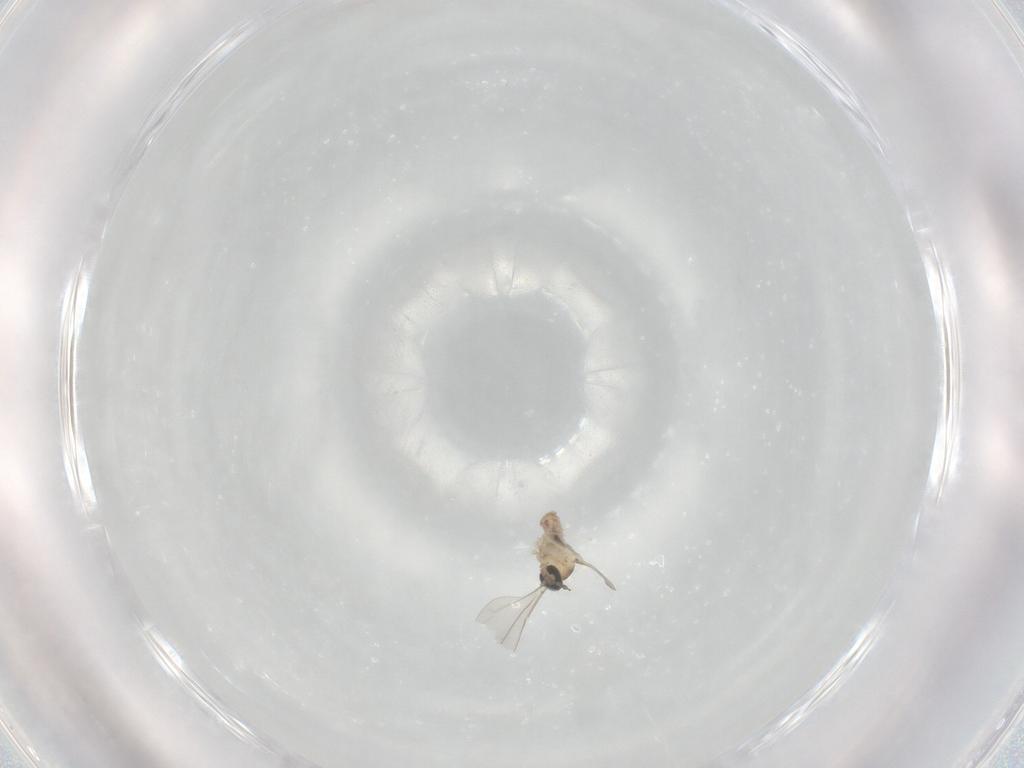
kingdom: Animalia
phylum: Arthropoda
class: Insecta
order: Diptera
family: Cecidomyiidae
